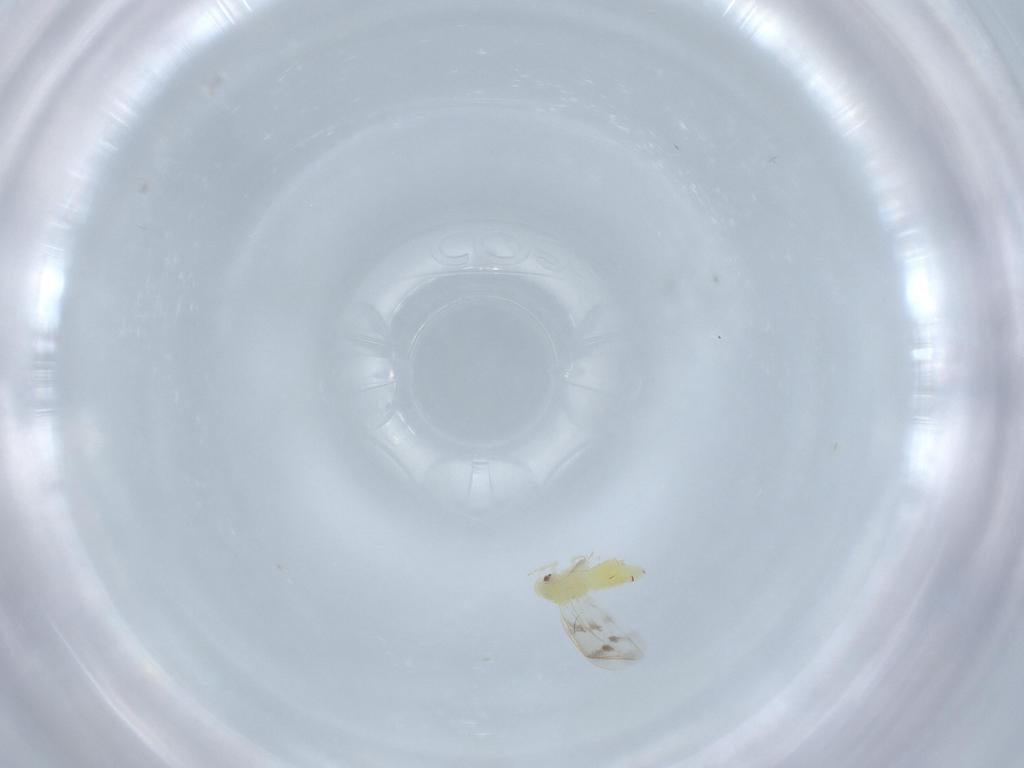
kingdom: Animalia
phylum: Arthropoda
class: Insecta
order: Hemiptera
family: Aleyrodidae
